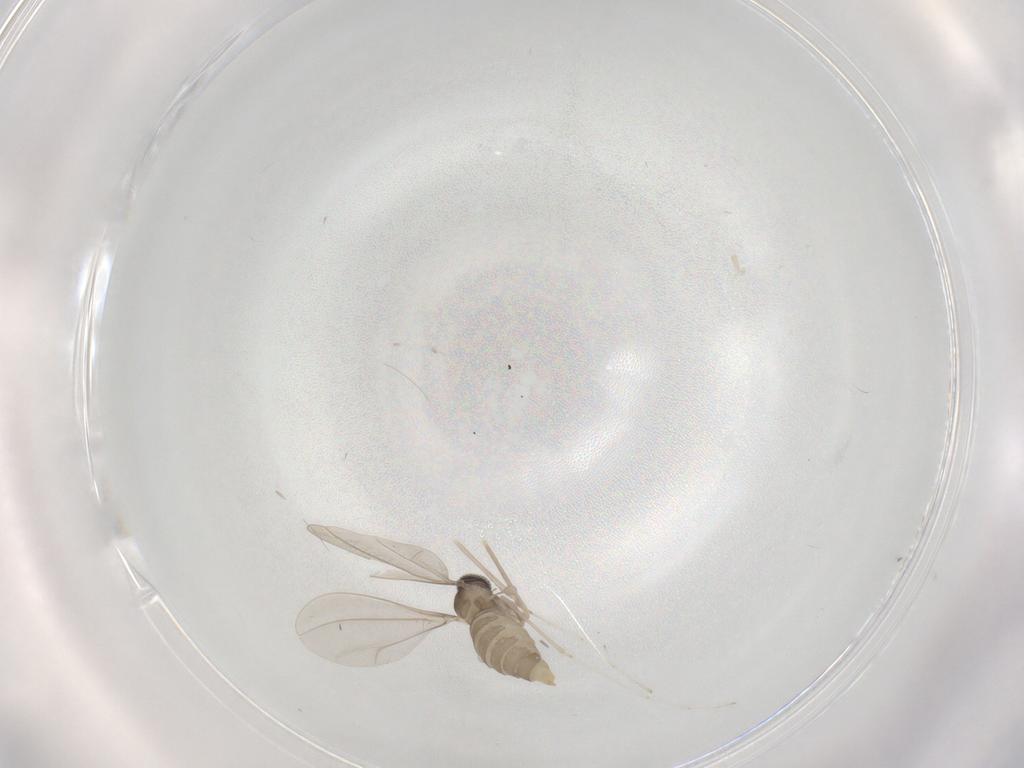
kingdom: Animalia
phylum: Arthropoda
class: Insecta
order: Diptera
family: Cecidomyiidae
